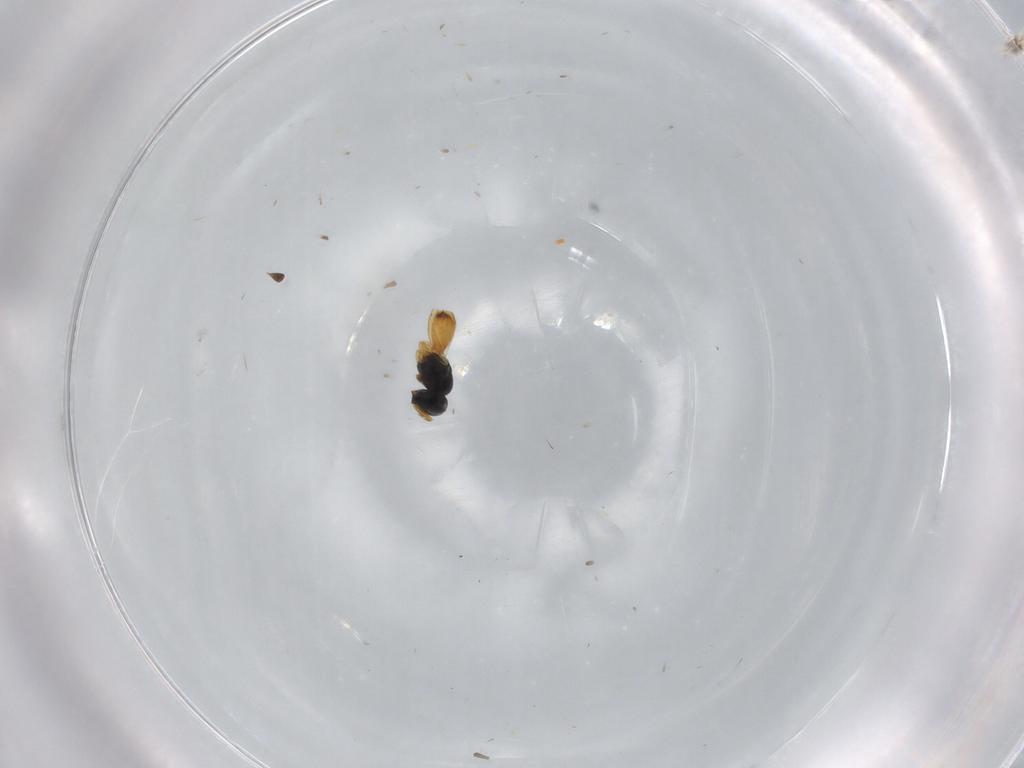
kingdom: Animalia
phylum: Arthropoda
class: Insecta
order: Hymenoptera
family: Scelionidae
